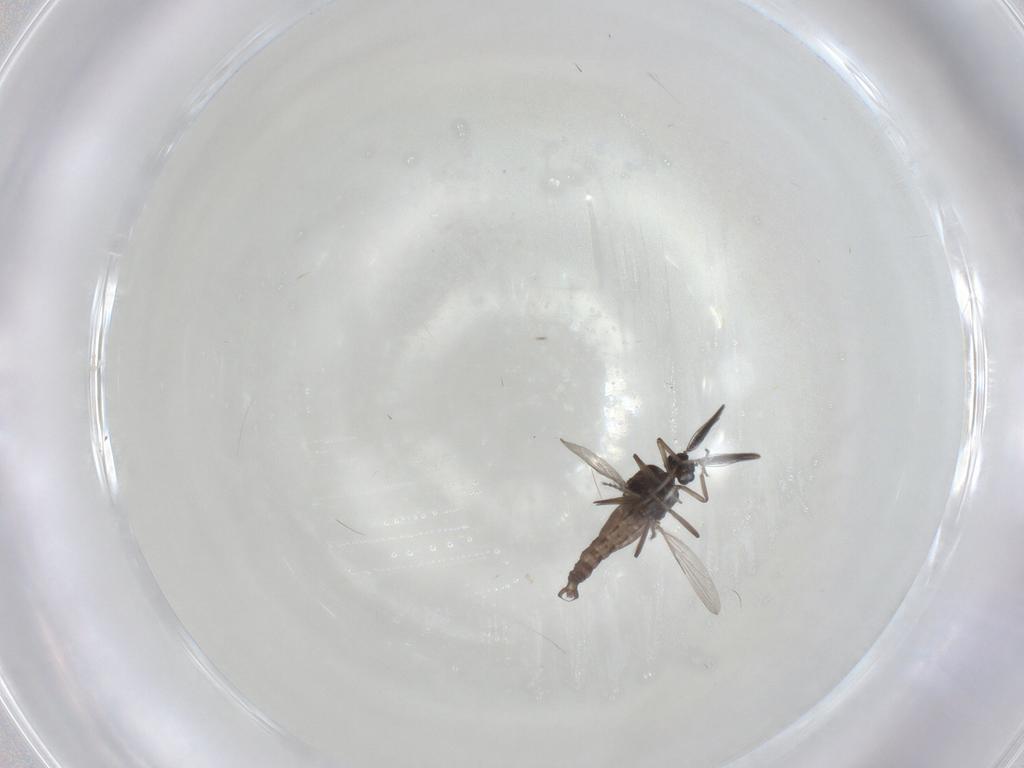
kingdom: Animalia
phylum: Arthropoda
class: Insecta
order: Diptera
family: Ceratopogonidae
